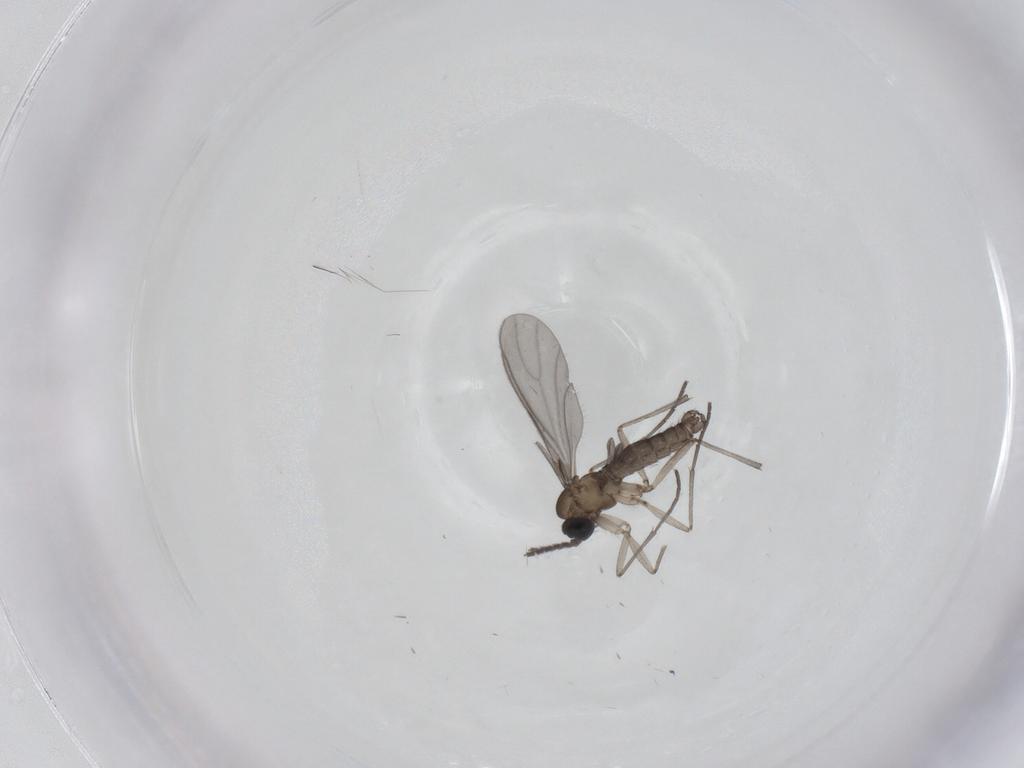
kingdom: Animalia
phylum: Arthropoda
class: Insecta
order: Diptera
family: Sciaridae
